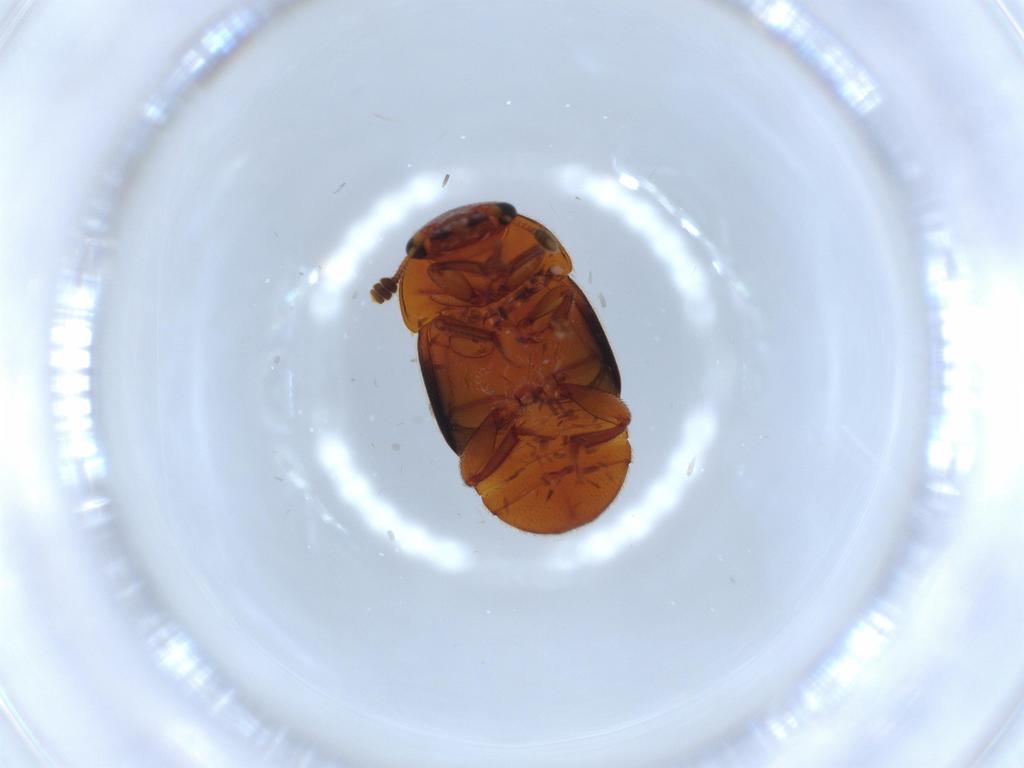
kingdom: Animalia
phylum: Arthropoda
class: Insecta
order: Coleoptera
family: Nitidulidae
